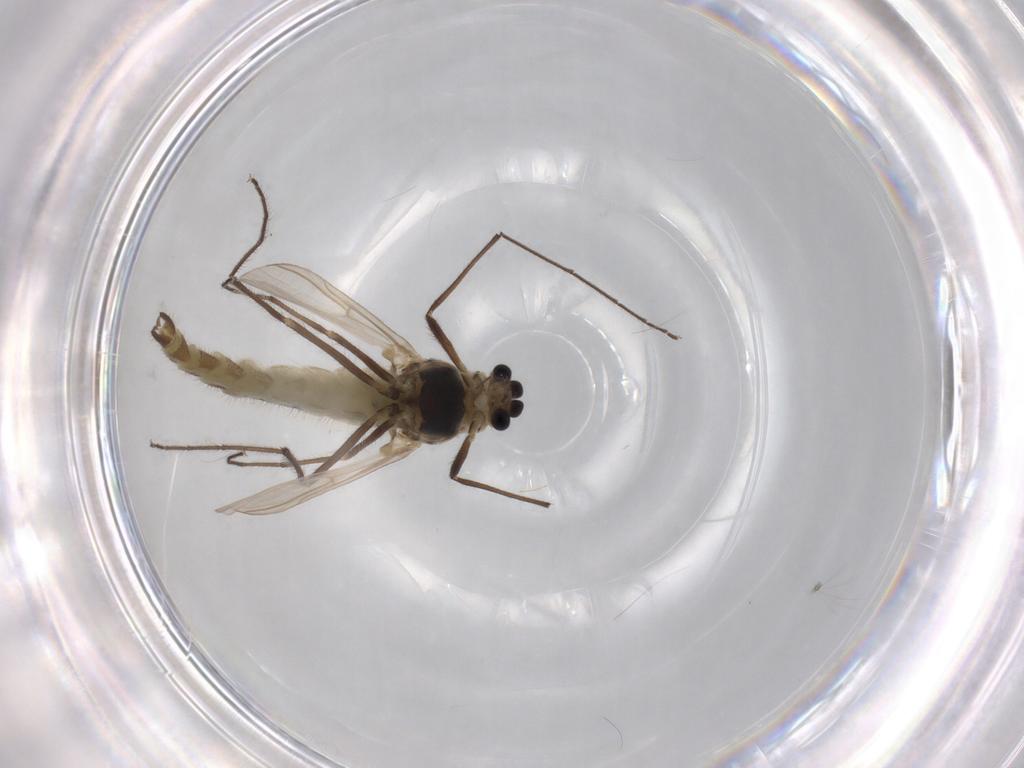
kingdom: Animalia
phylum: Arthropoda
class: Insecta
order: Diptera
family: Chironomidae
